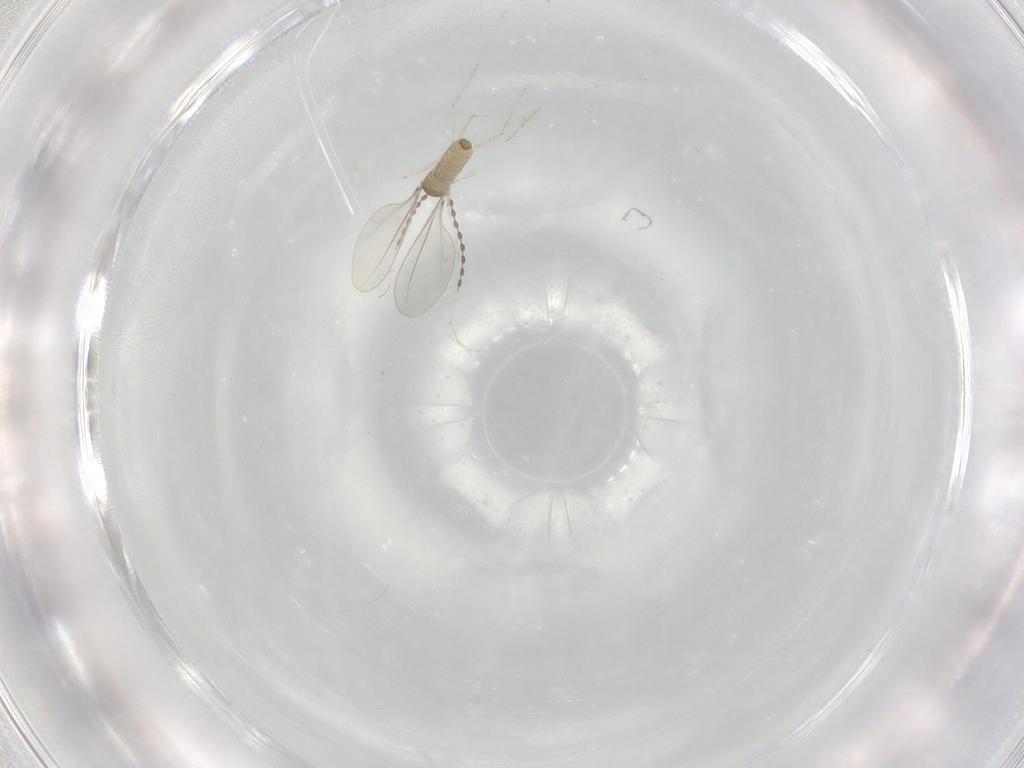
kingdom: Animalia
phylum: Arthropoda
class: Insecta
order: Diptera
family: Cecidomyiidae
